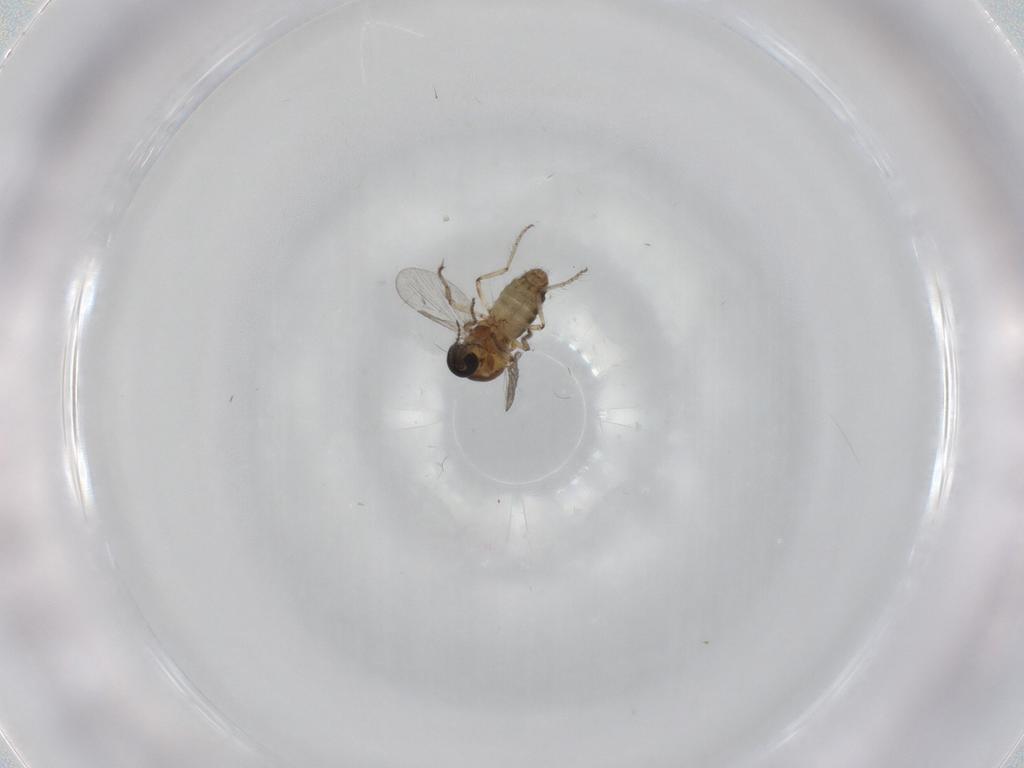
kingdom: Animalia
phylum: Arthropoda
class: Insecta
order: Diptera
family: Ceratopogonidae
